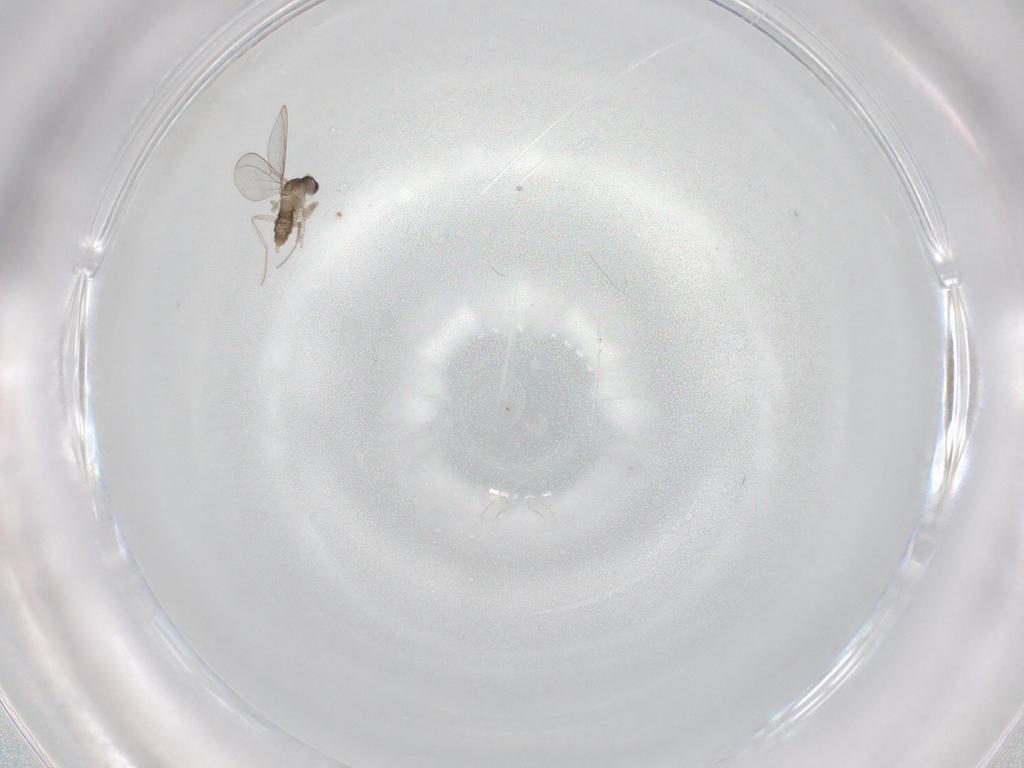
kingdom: Animalia
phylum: Arthropoda
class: Insecta
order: Diptera
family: Cecidomyiidae
